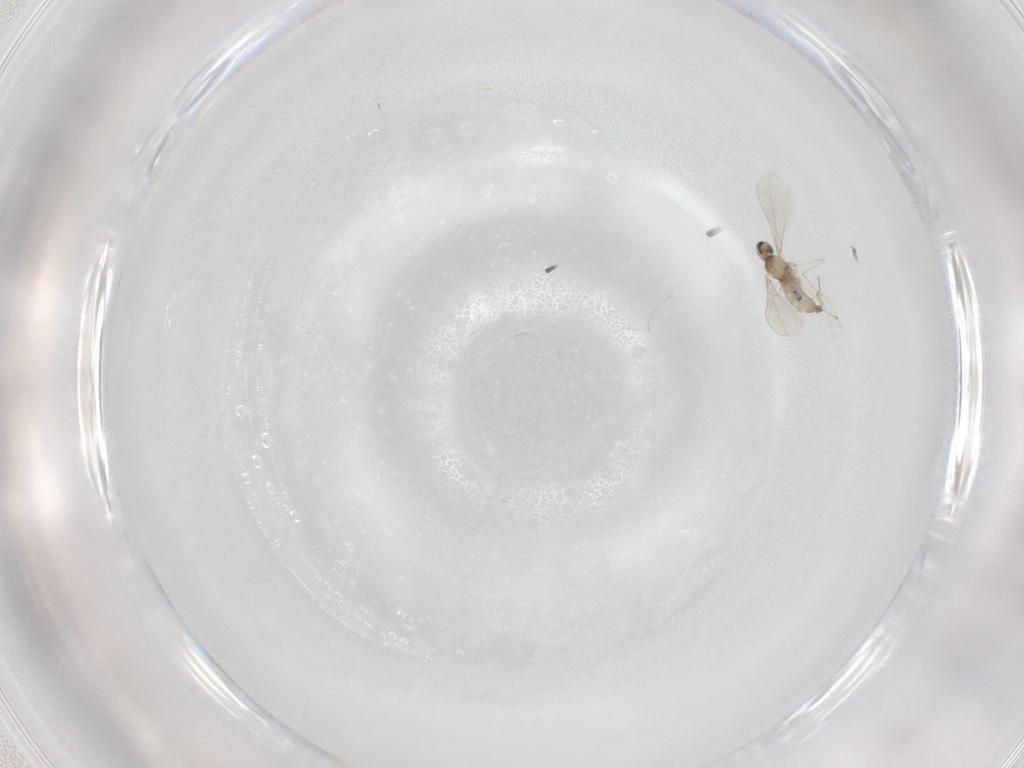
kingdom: Animalia
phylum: Arthropoda
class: Insecta
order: Diptera
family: Cecidomyiidae
